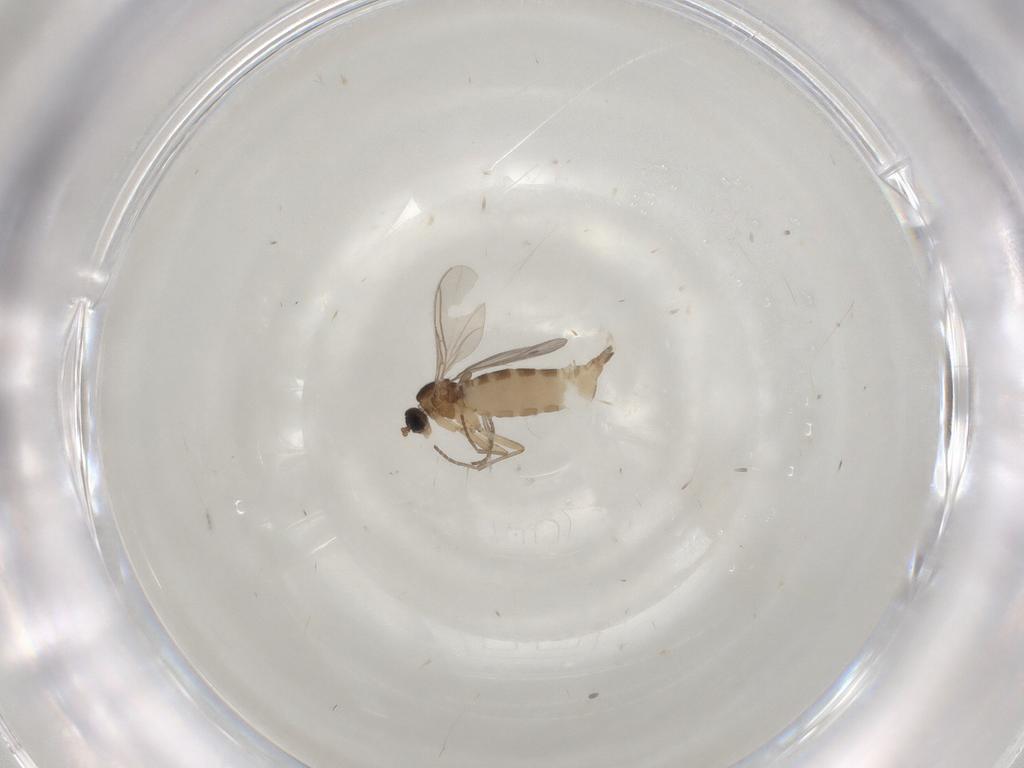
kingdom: Animalia
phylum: Arthropoda
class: Insecta
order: Diptera
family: Sciaridae
